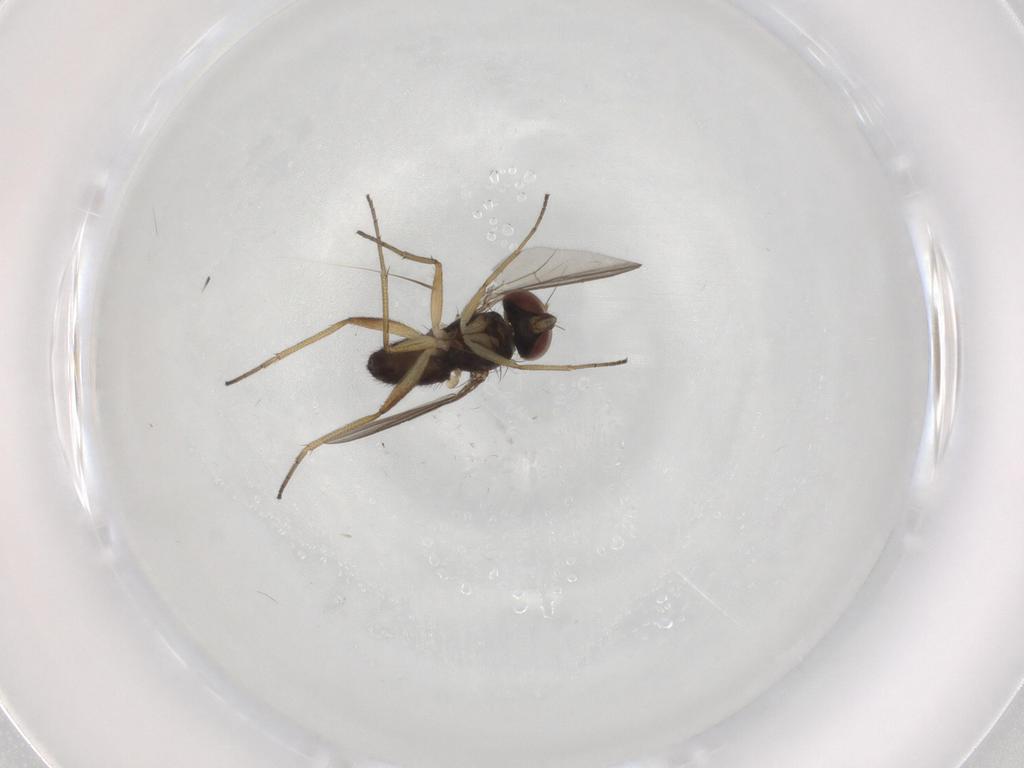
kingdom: Animalia
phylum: Arthropoda
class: Insecta
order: Diptera
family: Dolichopodidae
